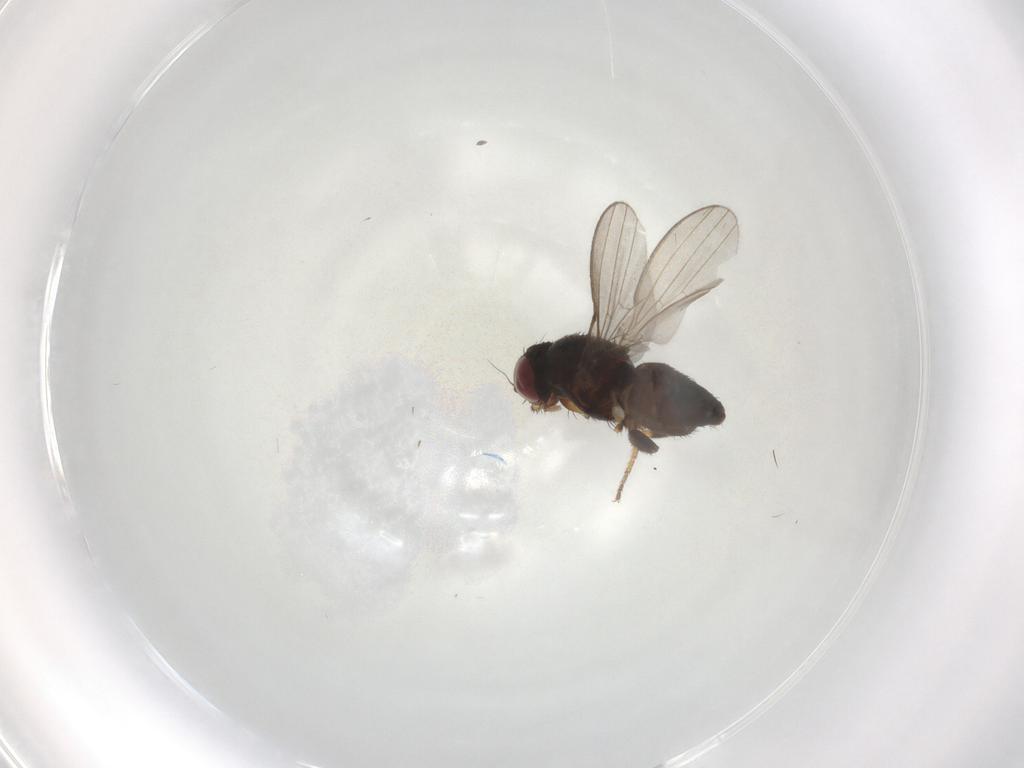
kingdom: Animalia
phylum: Arthropoda
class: Insecta
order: Diptera
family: Milichiidae
